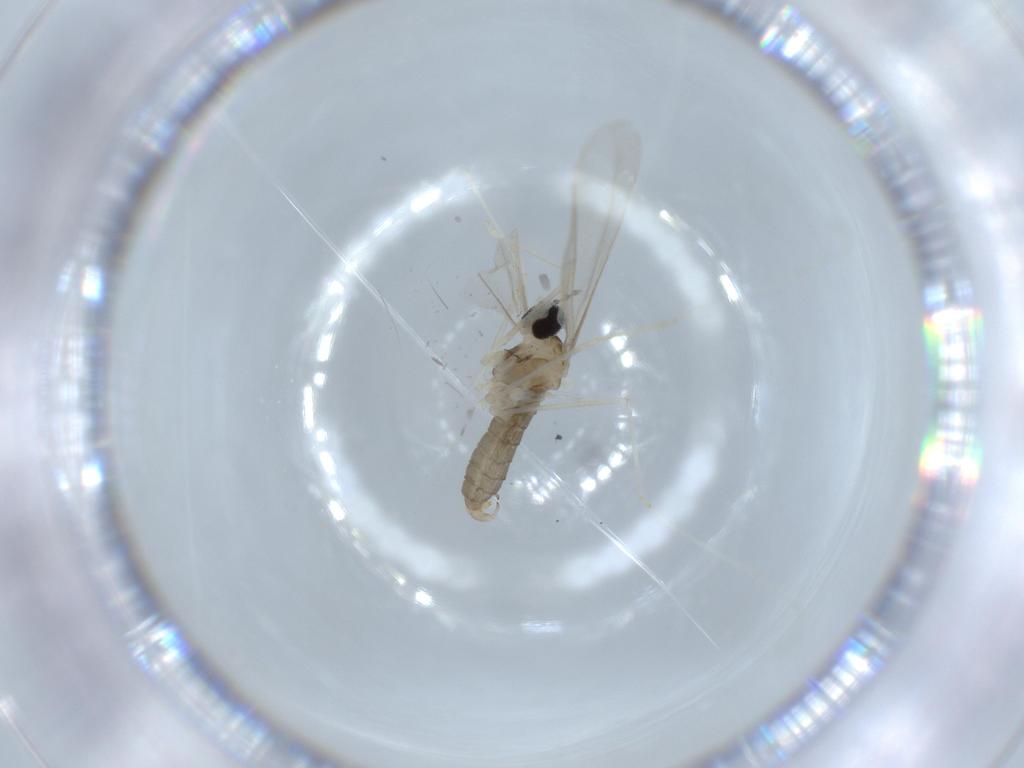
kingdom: Animalia
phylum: Arthropoda
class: Insecta
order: Diptera
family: Cecidomyiidae
